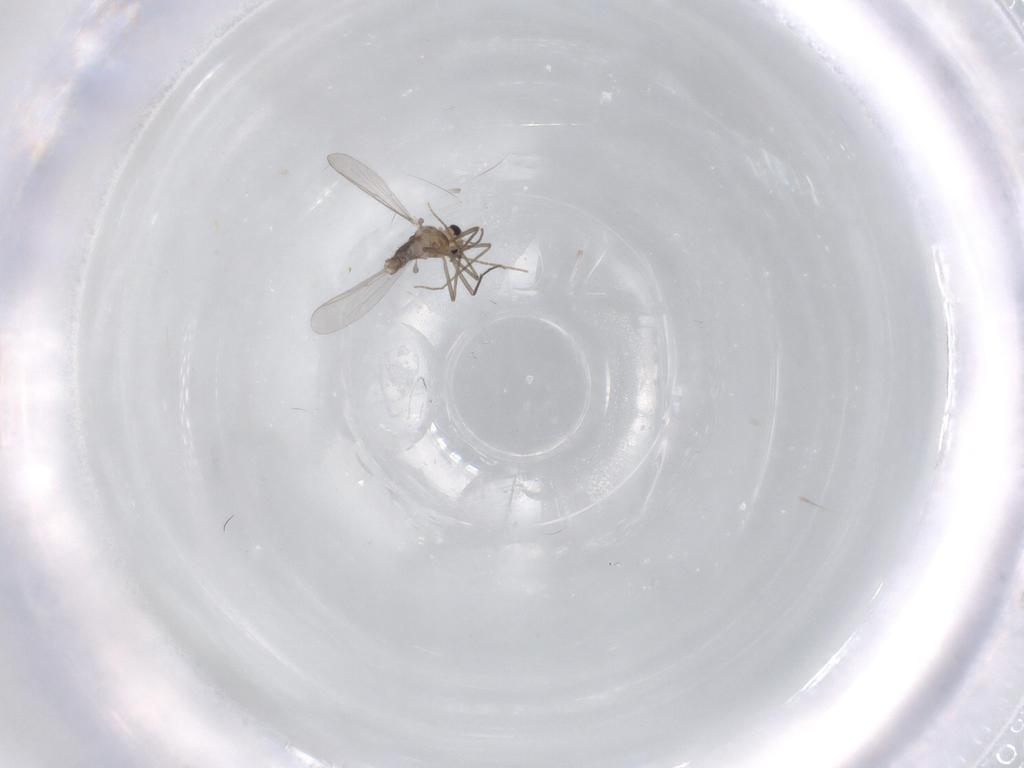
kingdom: Animalia
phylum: Arthropoda
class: Insecta
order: Diptera
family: Chironomidae
